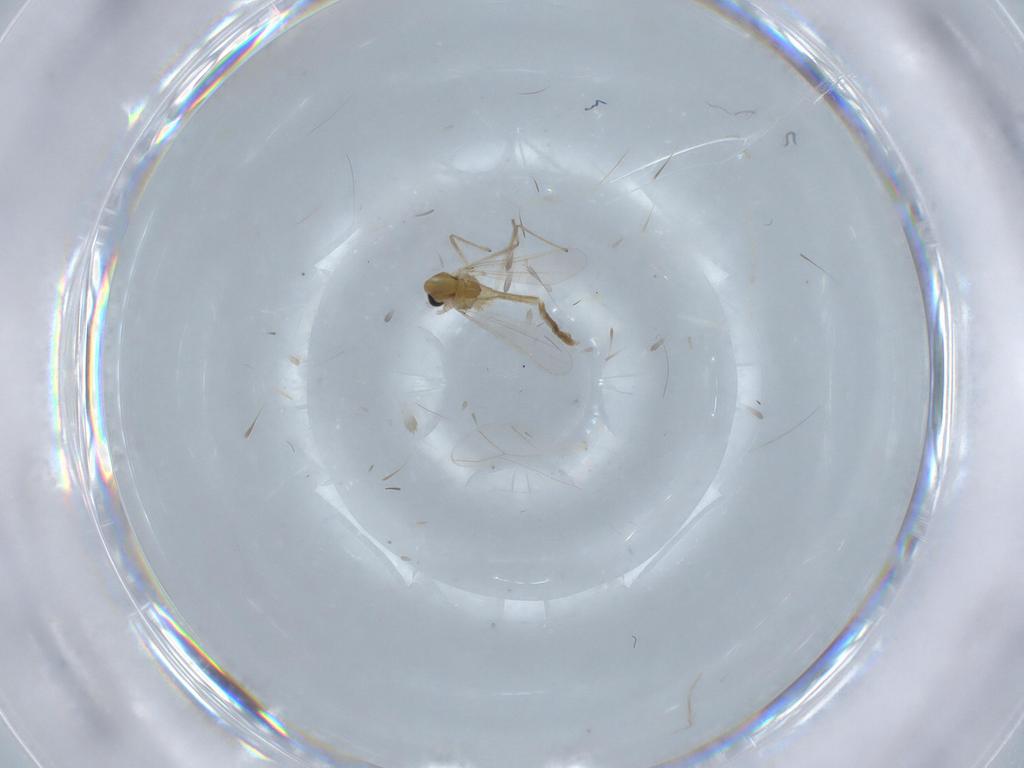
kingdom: Animalia
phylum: Arthropoda
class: Insecta
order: Diptera
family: Chironomidae
